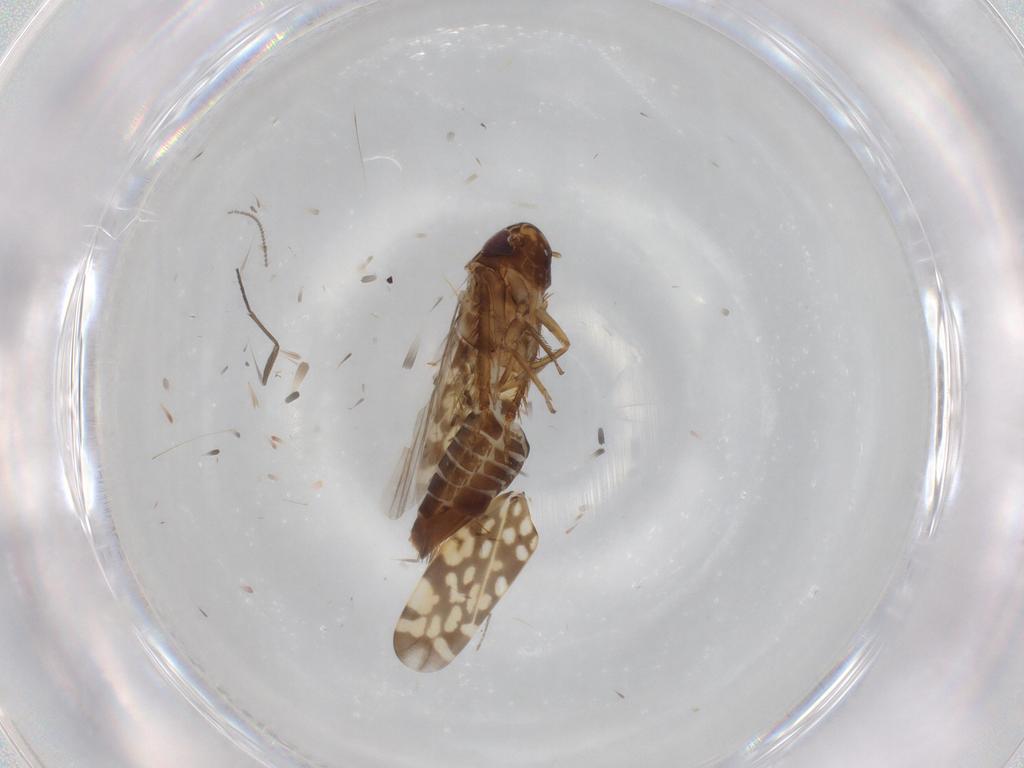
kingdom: Animalia
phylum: Arthropoda
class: Insecta
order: Hemiptera
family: Cicadellidae
